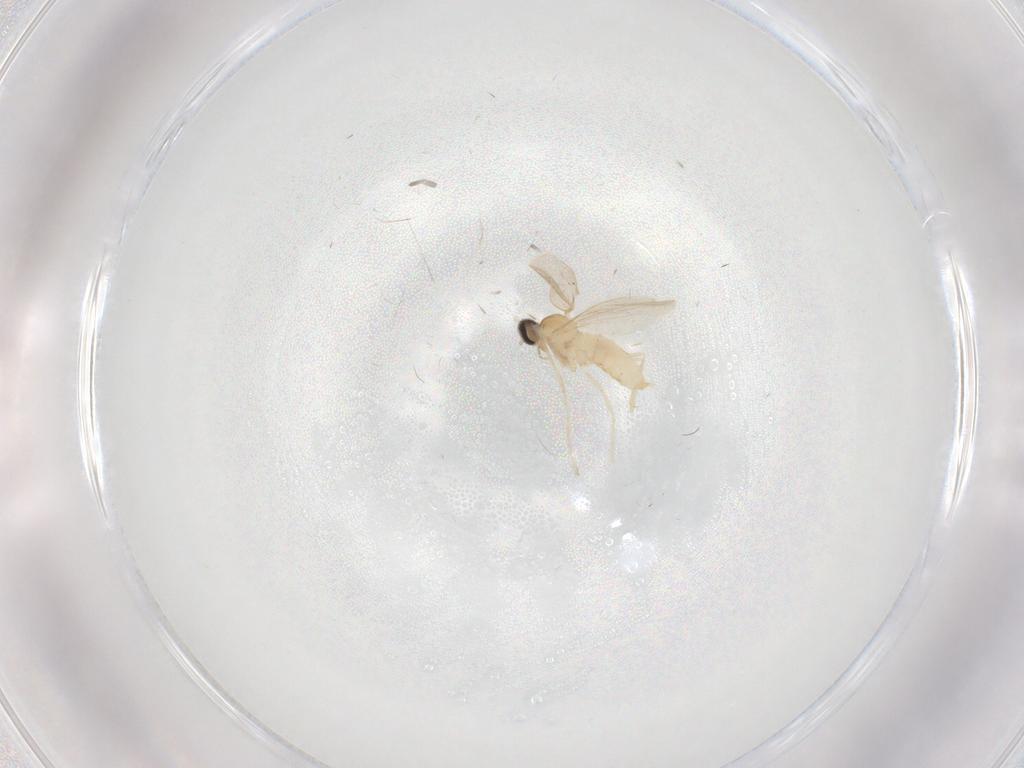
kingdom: Animalia
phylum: Arthropoda
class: Insecta
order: Diptera
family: Cecidomyiidae
